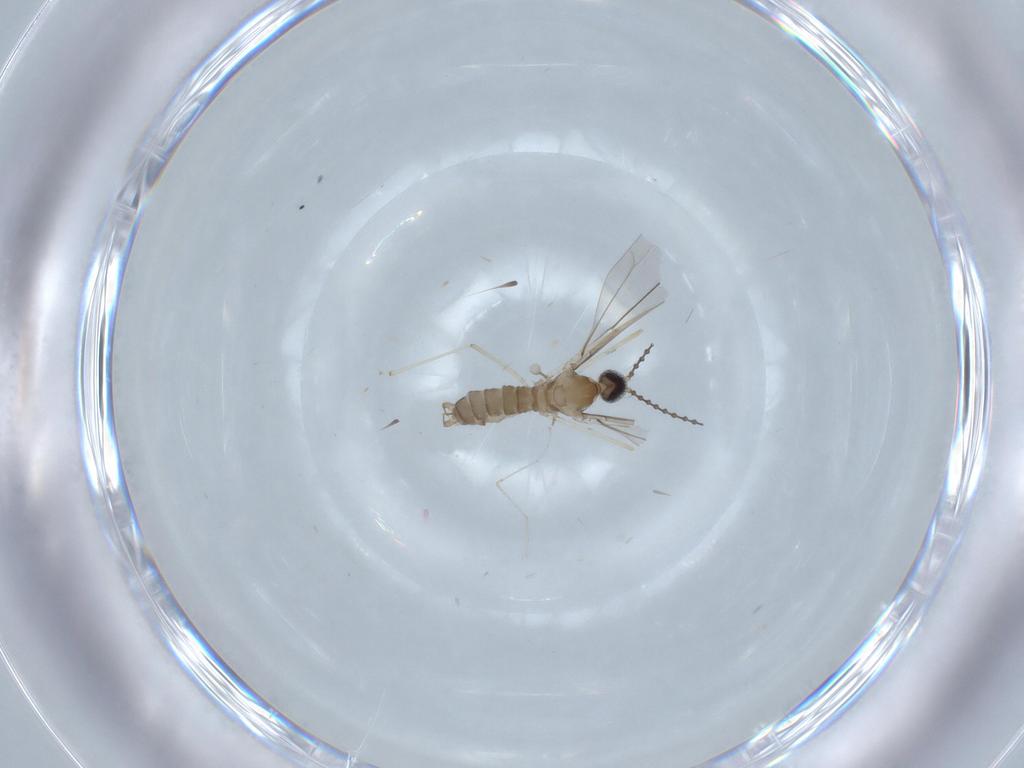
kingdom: Animalia
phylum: Arthropoda
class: Insecta
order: Diptera
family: Cecidomyiidae
